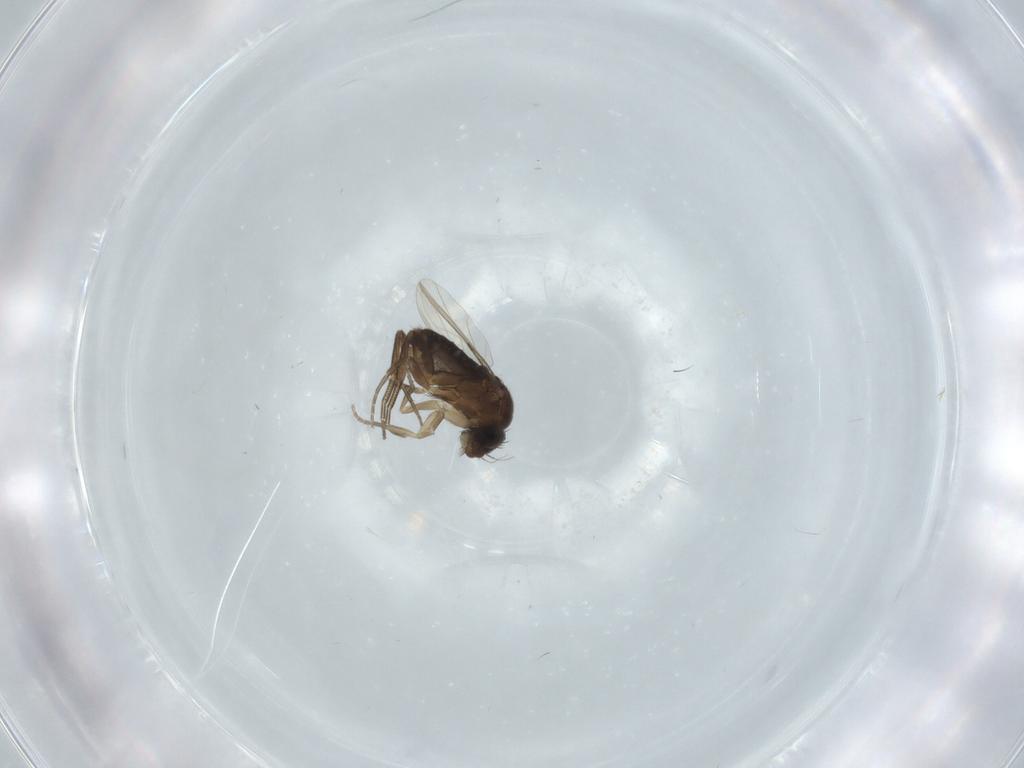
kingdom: Animalia
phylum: Arthropoda
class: Insecta
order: Diptera
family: Phoridae
